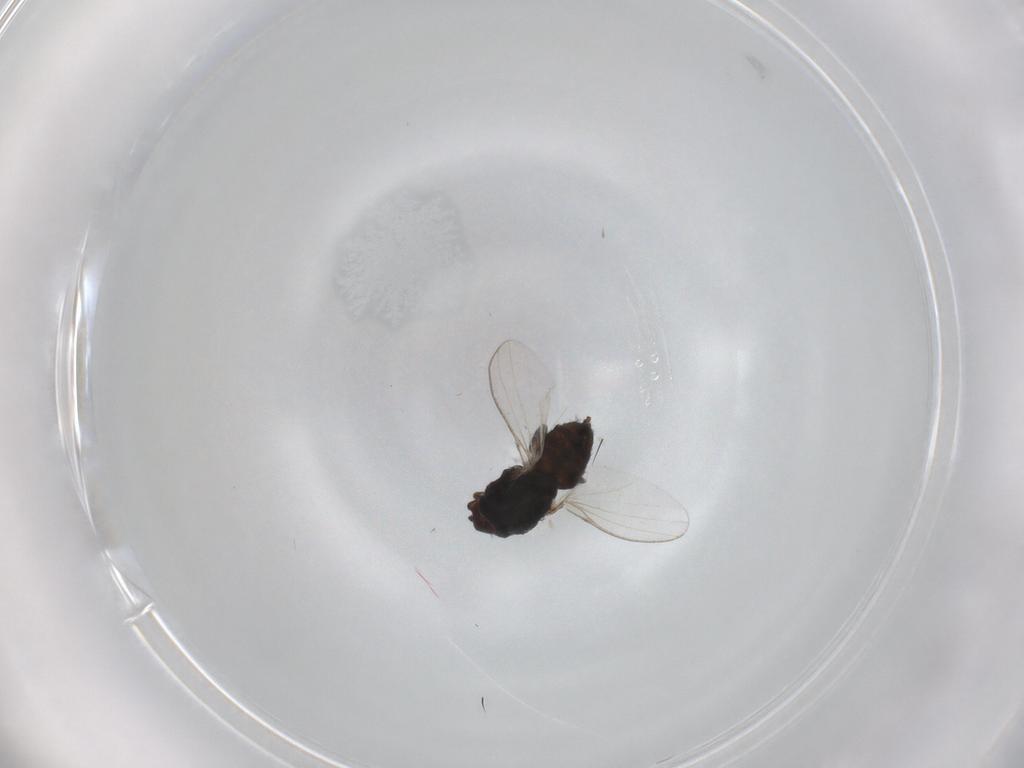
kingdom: Animalia
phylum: Arthropoda
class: Insecta
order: Diptera
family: Milichiidae
